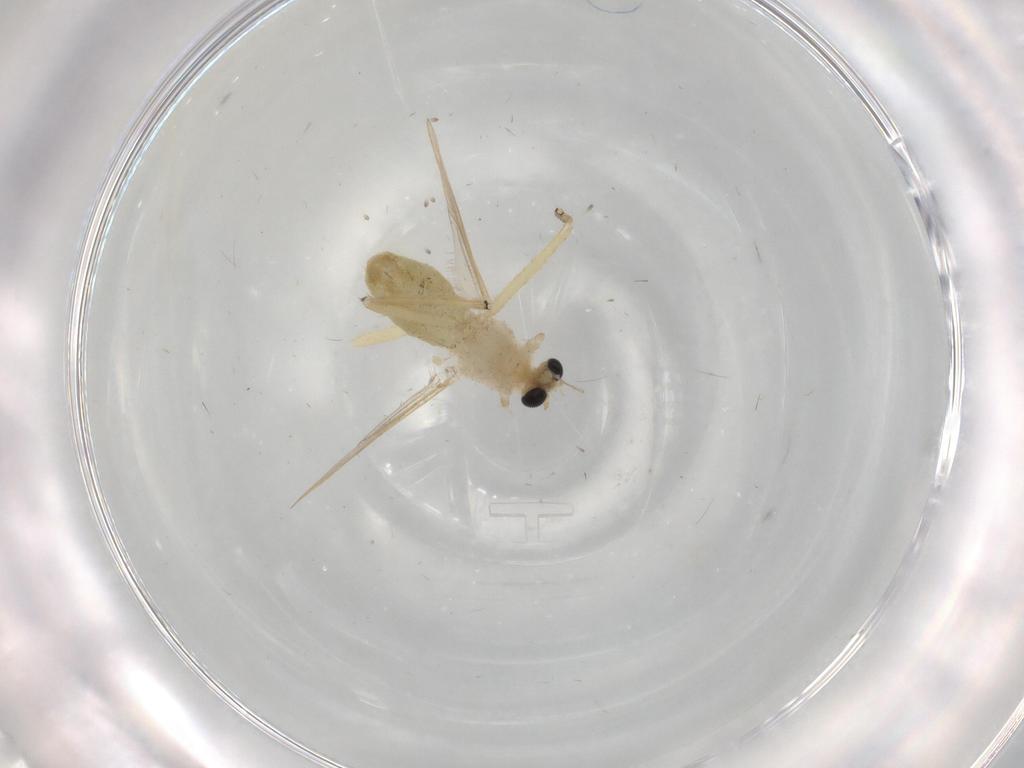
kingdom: Animalia
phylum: Arthropoda
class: Insecta
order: Diptera
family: Chironomidae
